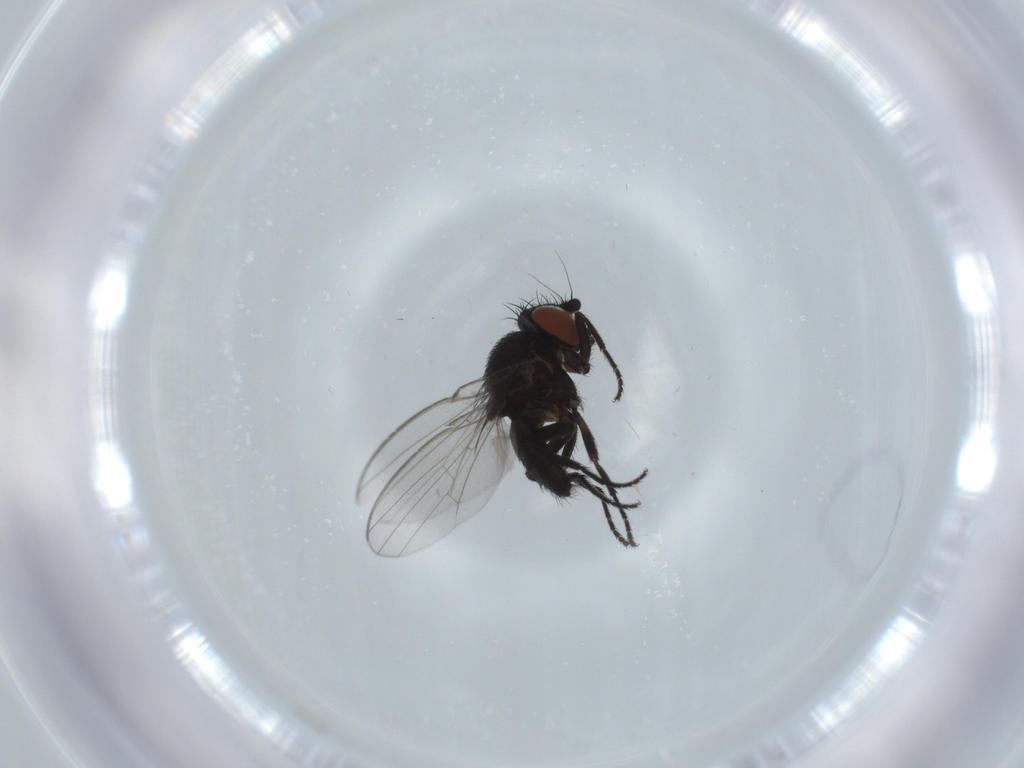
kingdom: Animalia
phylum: Arthropoda
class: Insecta
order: Diptera
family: Milichiidae
